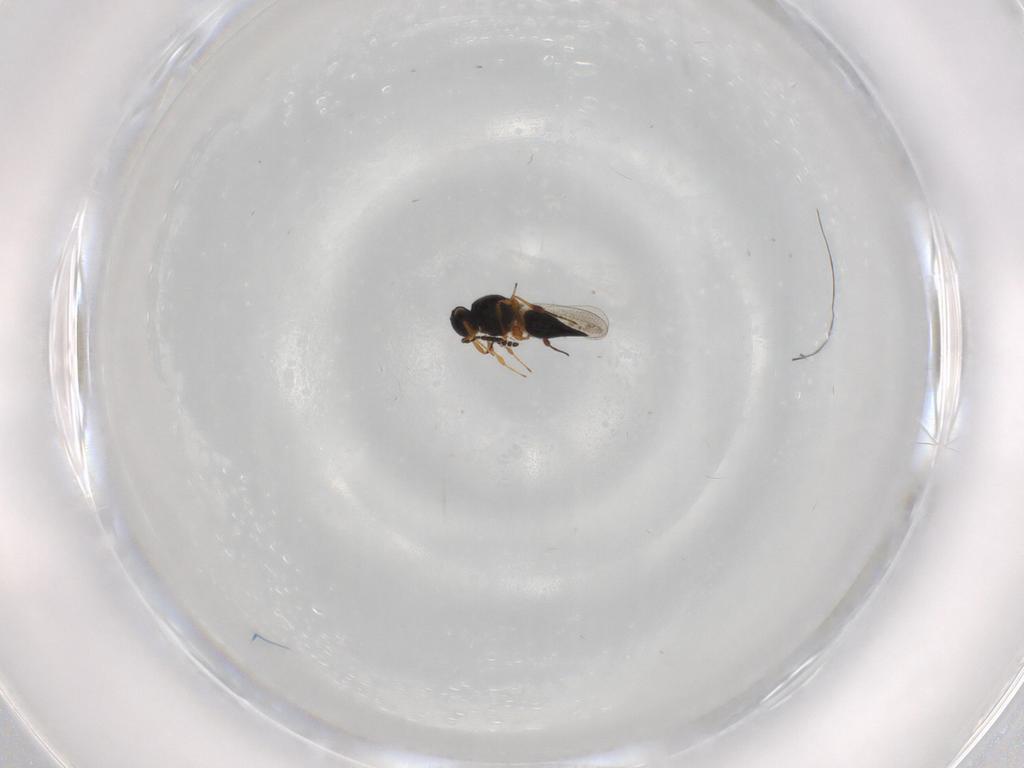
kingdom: Animalia
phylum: Arthropoda
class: Insecta
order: Hymenoptera
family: Platygastridae
